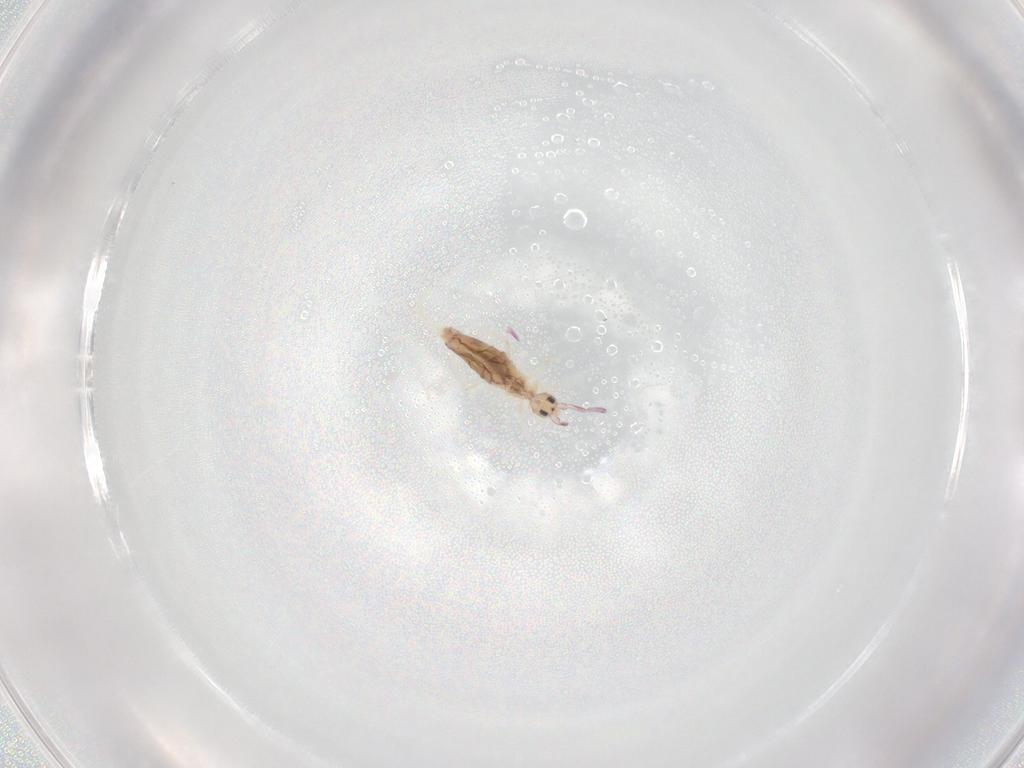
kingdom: Animalia
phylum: Arthropoda
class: Collembola
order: Entomobryomorpha
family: Entomobryidae
